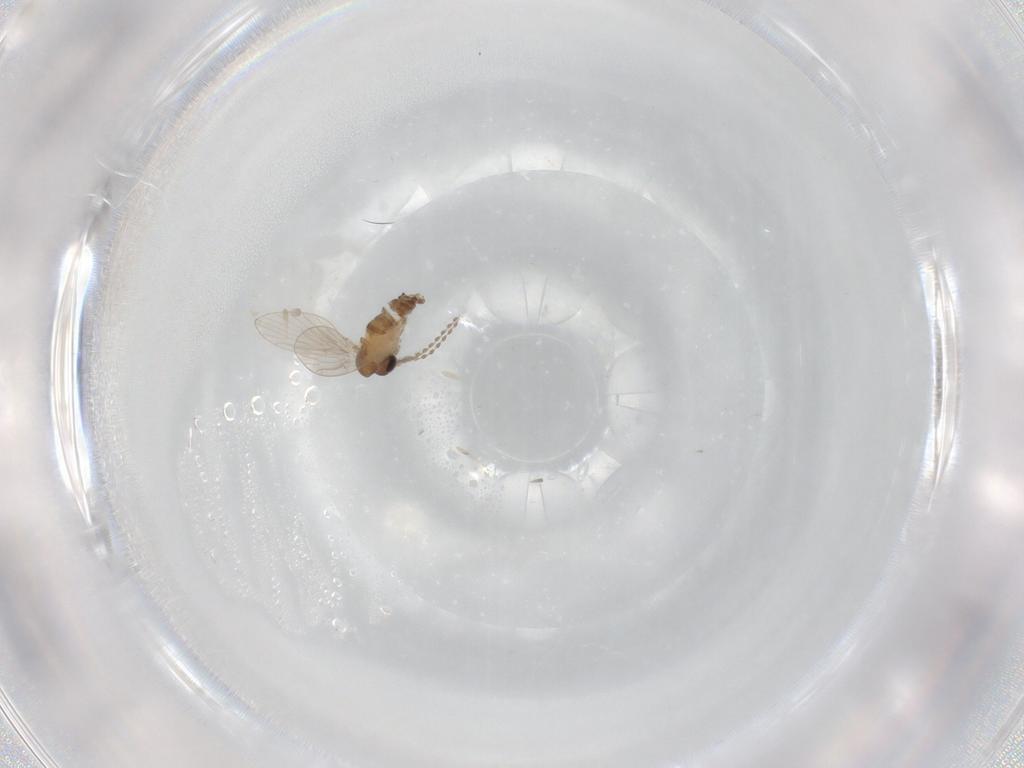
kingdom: Animalia
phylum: Arthropoda
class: Insecta
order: Diptera
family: Psychodidae
